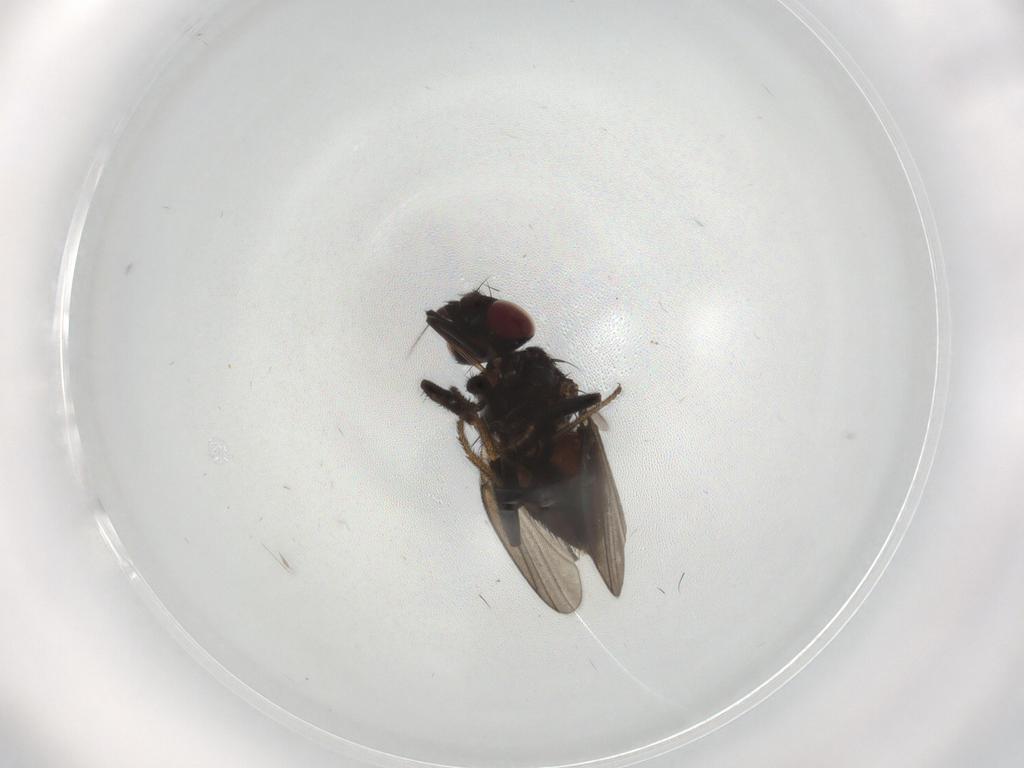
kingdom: Animalia
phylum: Arthropoda
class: Insecta
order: Diptera
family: Milichiidae
